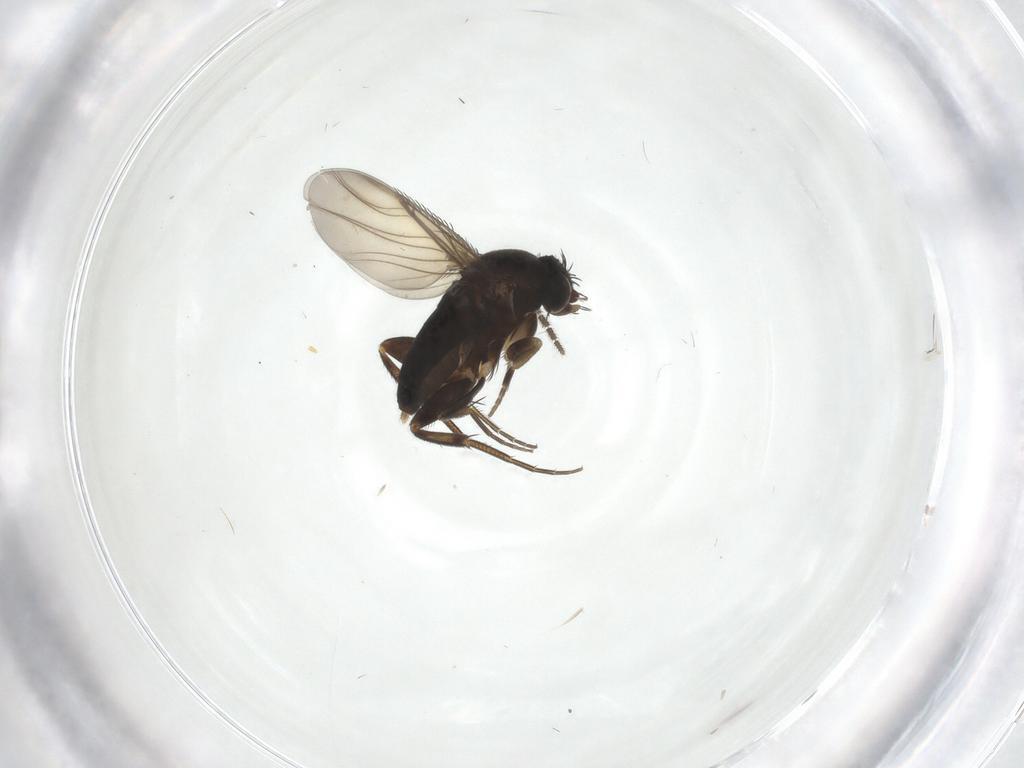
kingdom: Animalia
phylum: Arthropoda
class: Insecta
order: Diptera
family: Phoridae
